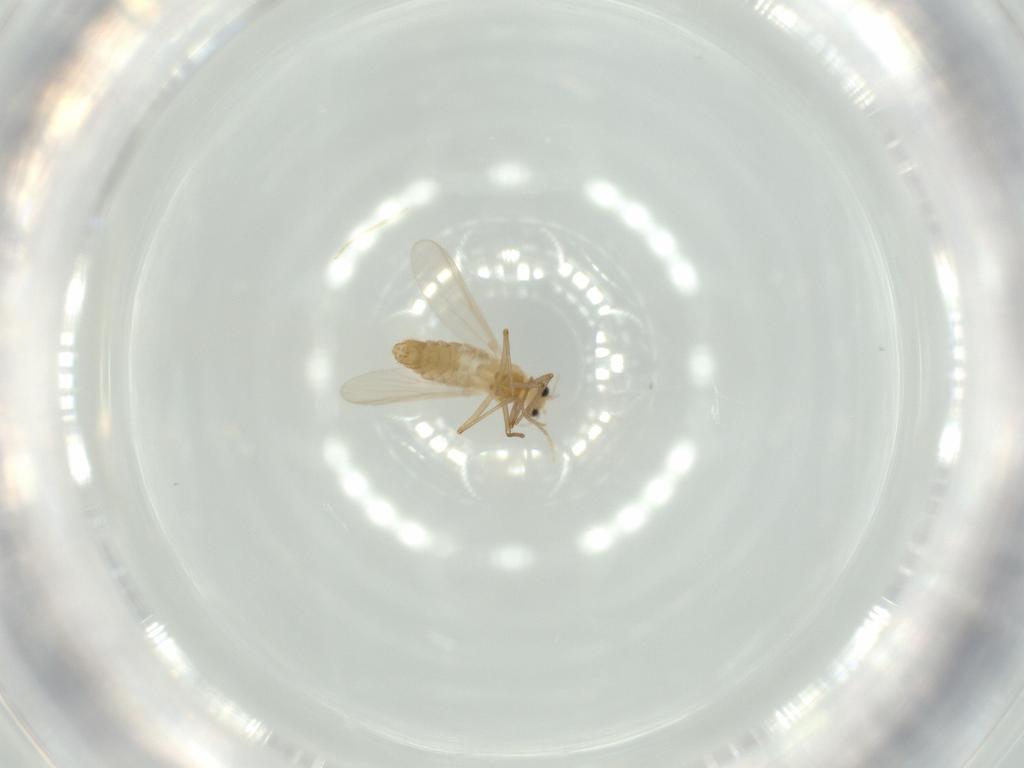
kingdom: Animalia
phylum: Arthropoda
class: Insecta
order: Diptera
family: Chironomidae
